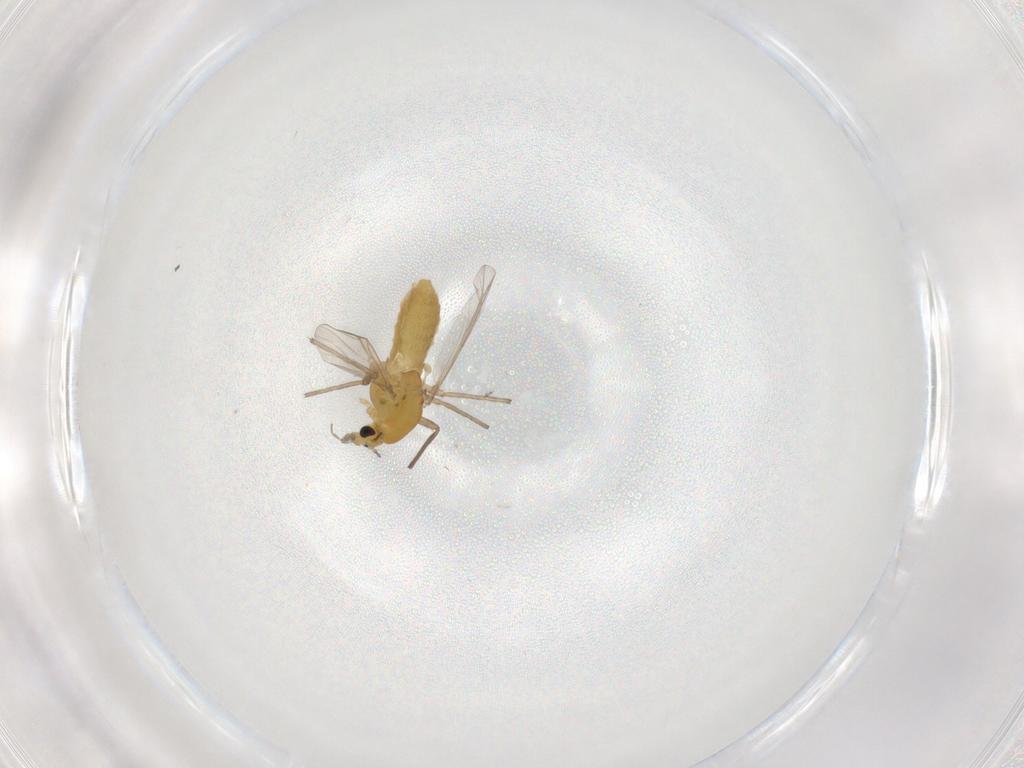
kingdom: Animalia
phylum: Arthropoda
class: Insecta
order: Diptera
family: Chironomidae
